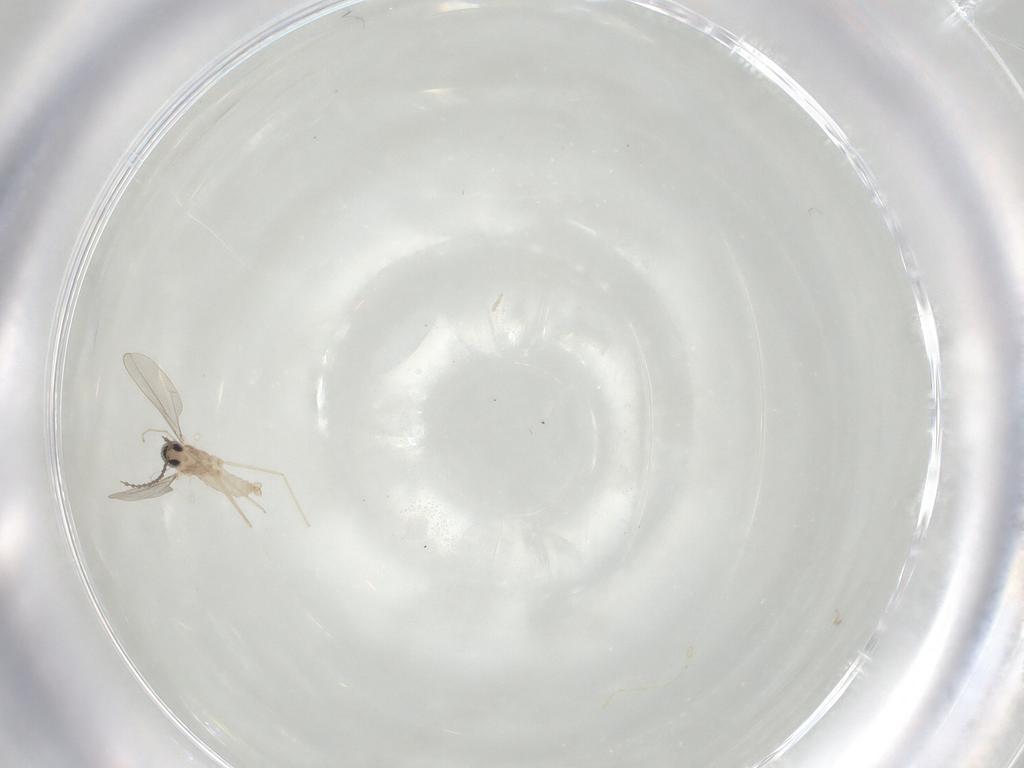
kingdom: Animalia
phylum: Arthropoda
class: Insecta
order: Diptera
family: Cecidomyiidae
